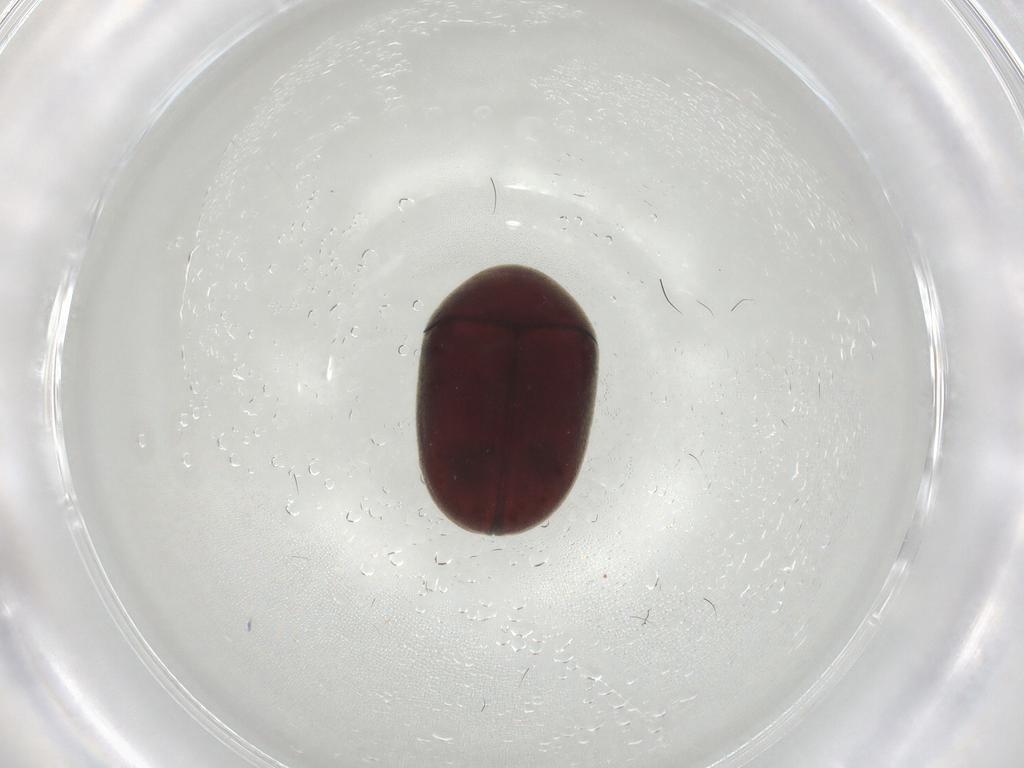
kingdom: Animalia
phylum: Arthropoda
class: Insecta
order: Coleoptera
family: Ptinidae
